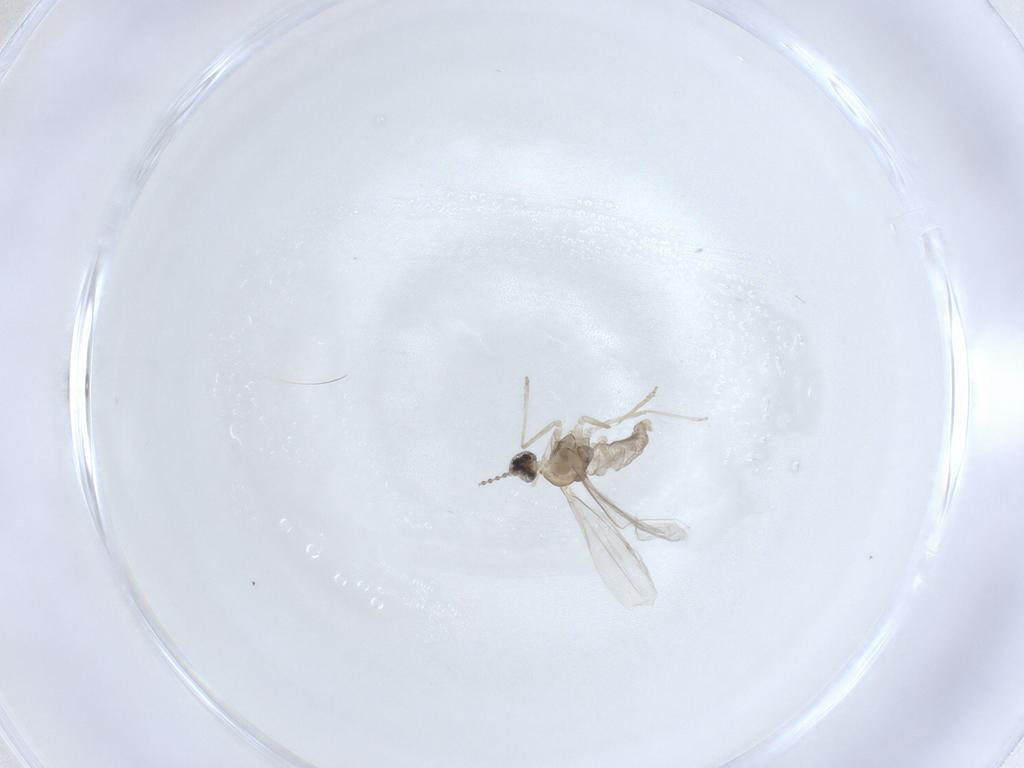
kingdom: Animalia
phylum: Arthropoda
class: Insecta
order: Diptera
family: Cecidomyiidae
